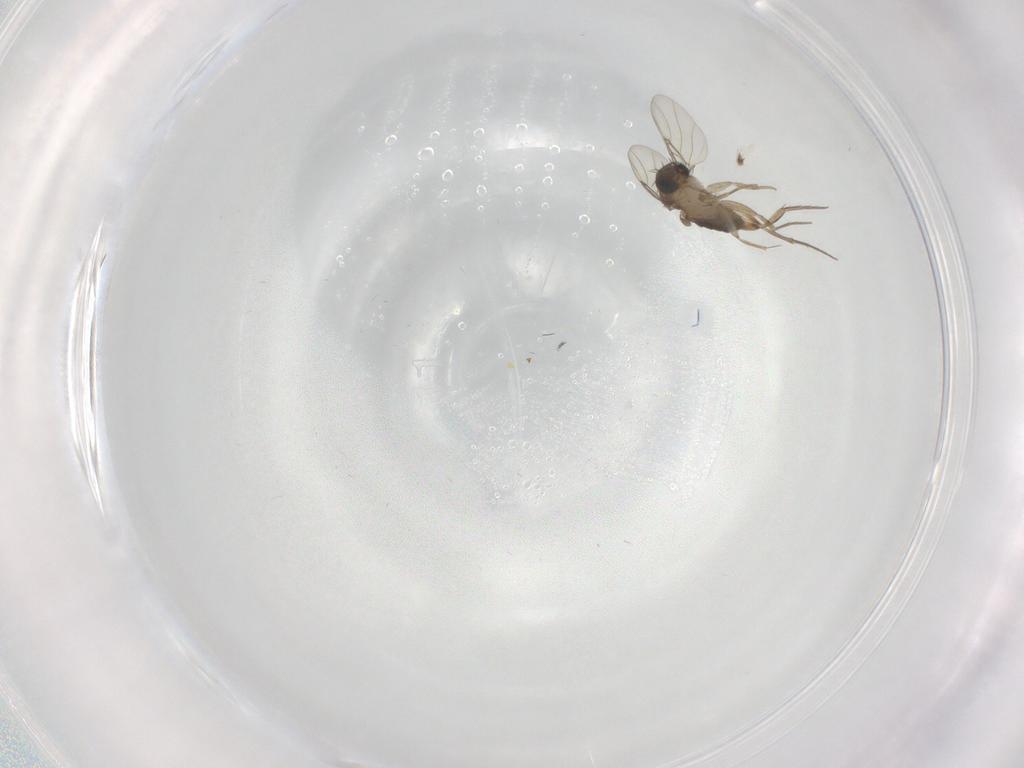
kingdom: Animalia
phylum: Arthropoda
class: Insecta
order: Diptera
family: Phoridae
